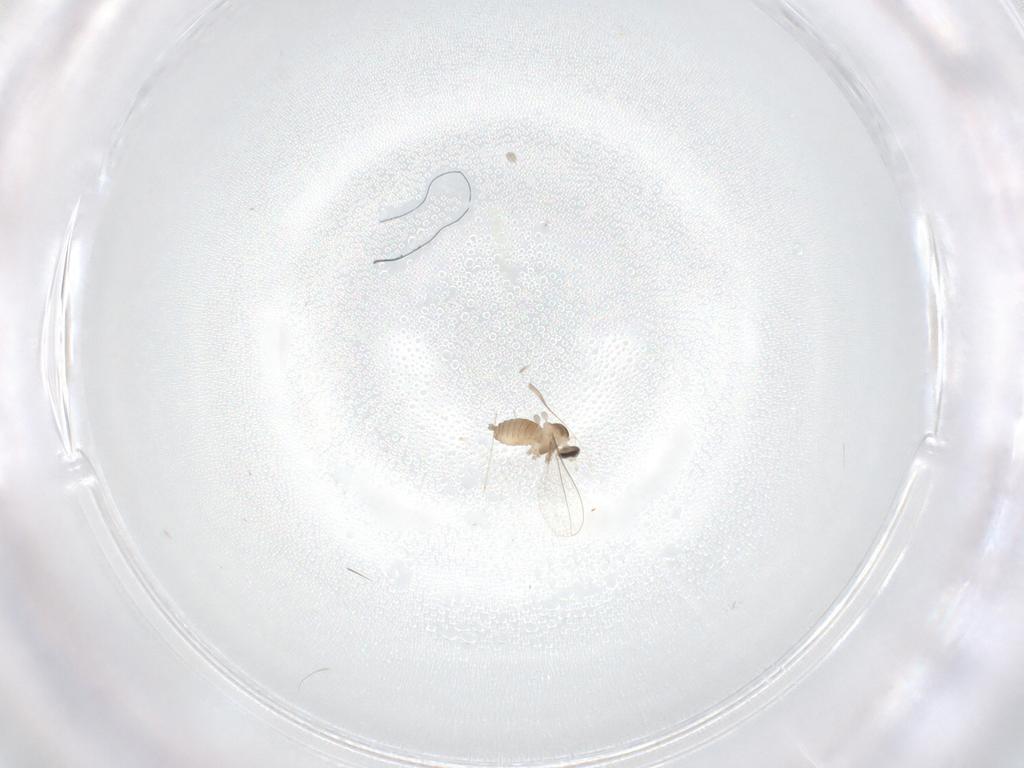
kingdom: Animalia
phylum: Arthropoda
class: Insecta
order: Diptera
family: Cecidomyiidae
